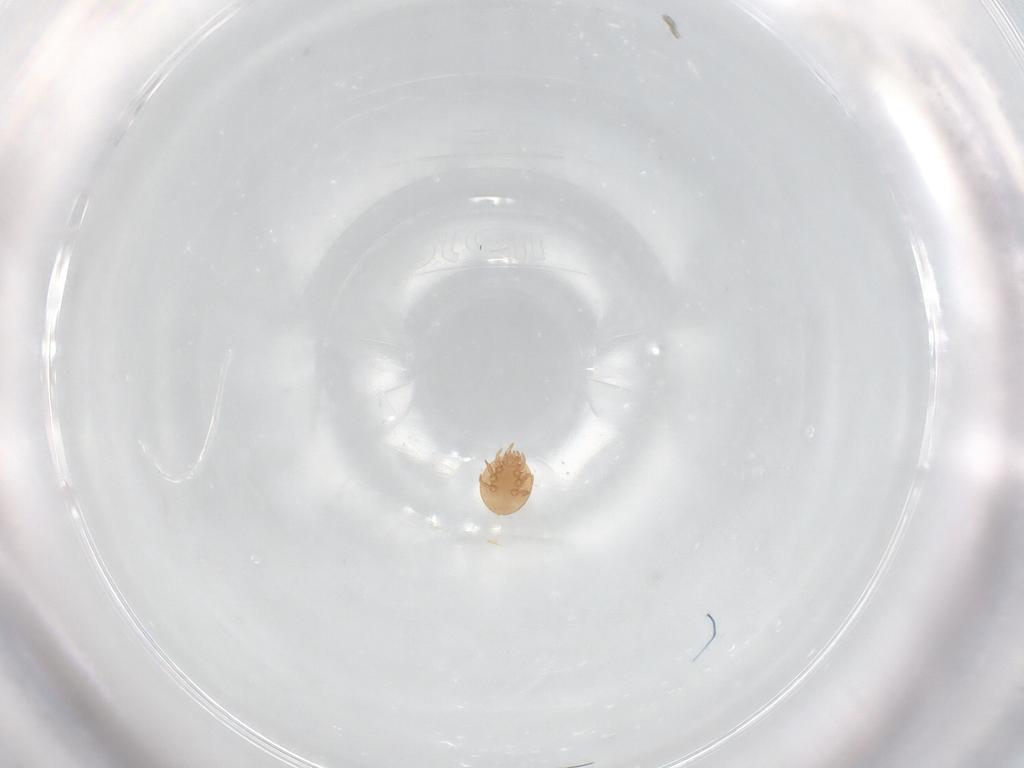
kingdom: Animalia
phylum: Arthropoda
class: Arachnida
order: Mesostigmata
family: Trematuridae
